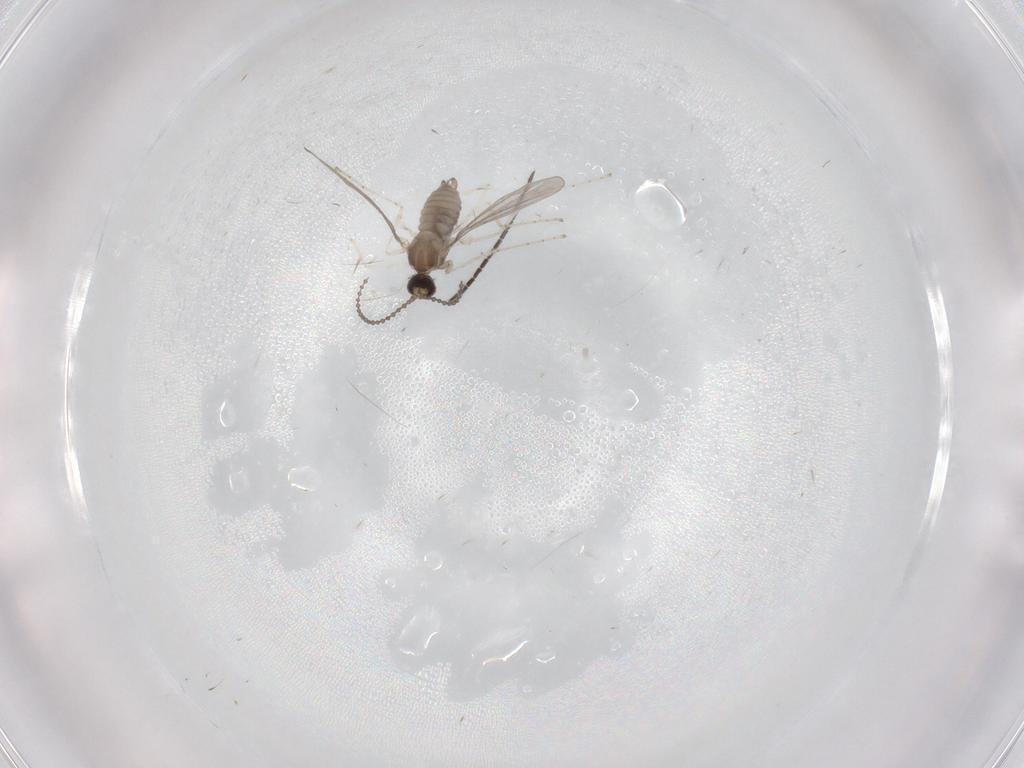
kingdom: Animalia
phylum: Arthropoda
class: Insecta
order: Diptera
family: Sciaridae
